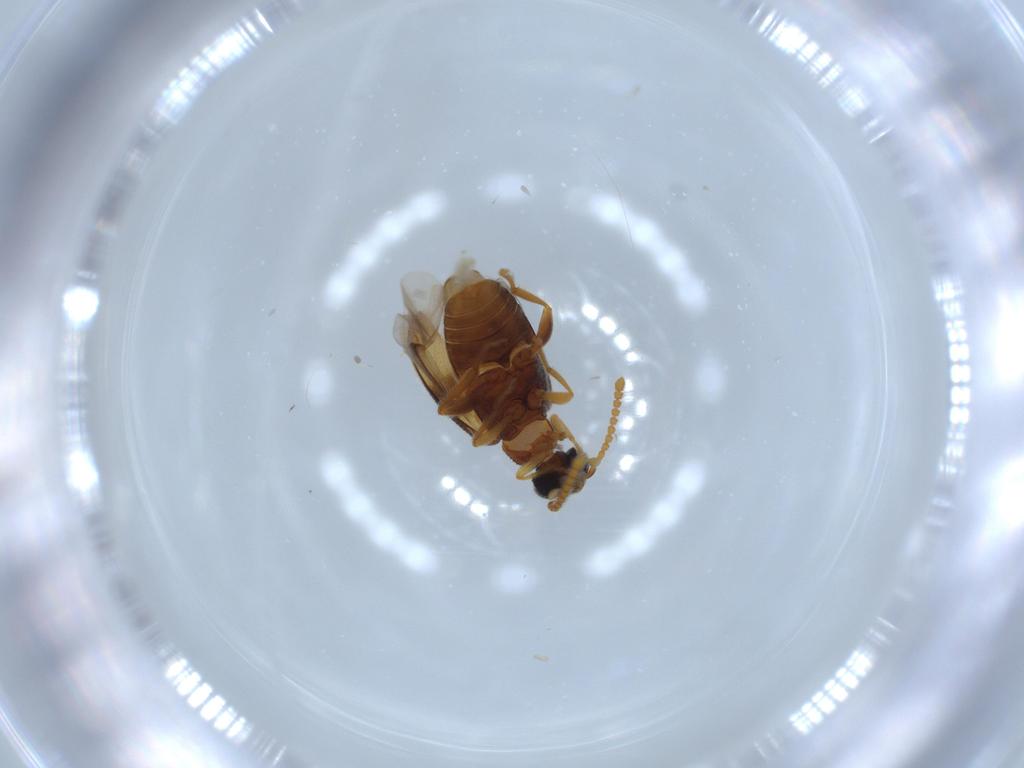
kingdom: Animalia
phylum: Arthropoda
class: Insecta
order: Coleoptera
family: Aderidae
